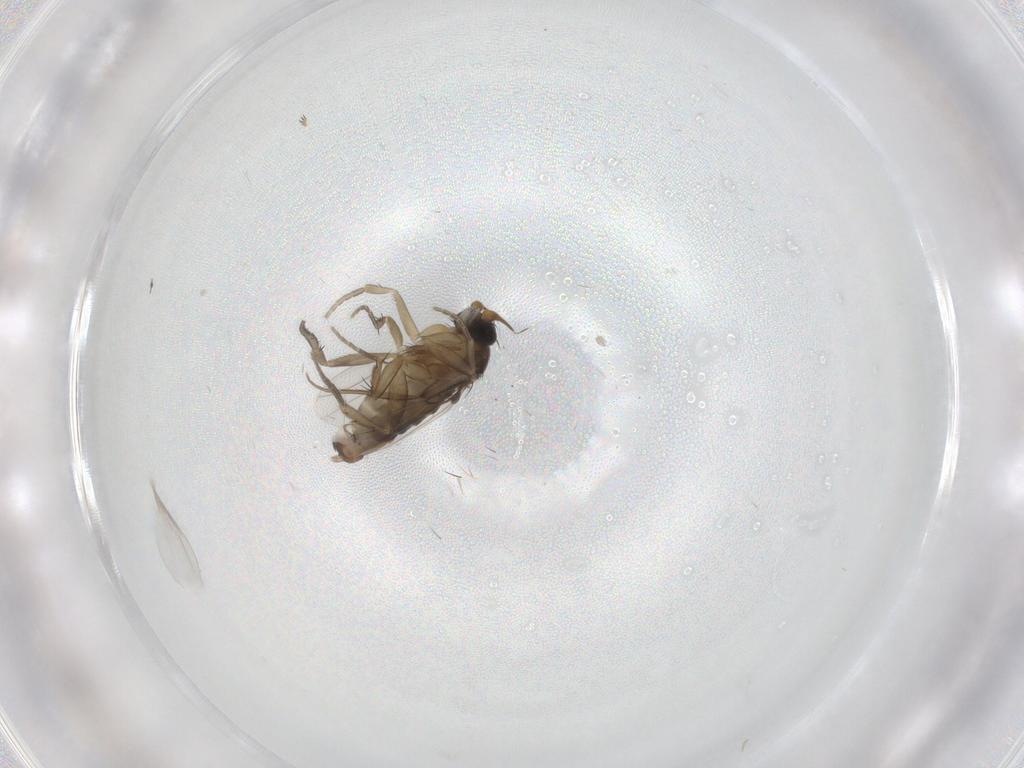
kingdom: Animalia
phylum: Arthropoda
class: Insecta
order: Diptera
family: Phoridae
